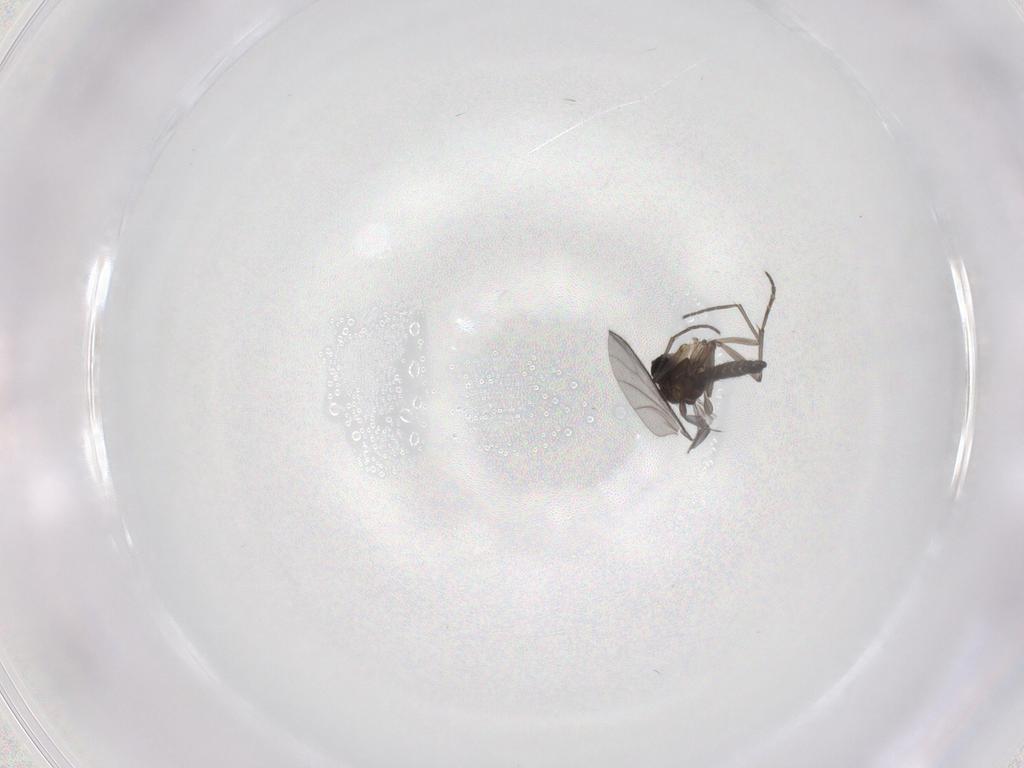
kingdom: Animalia
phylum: Arthropoda
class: Insecta
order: Diptera
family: Sciaridae
